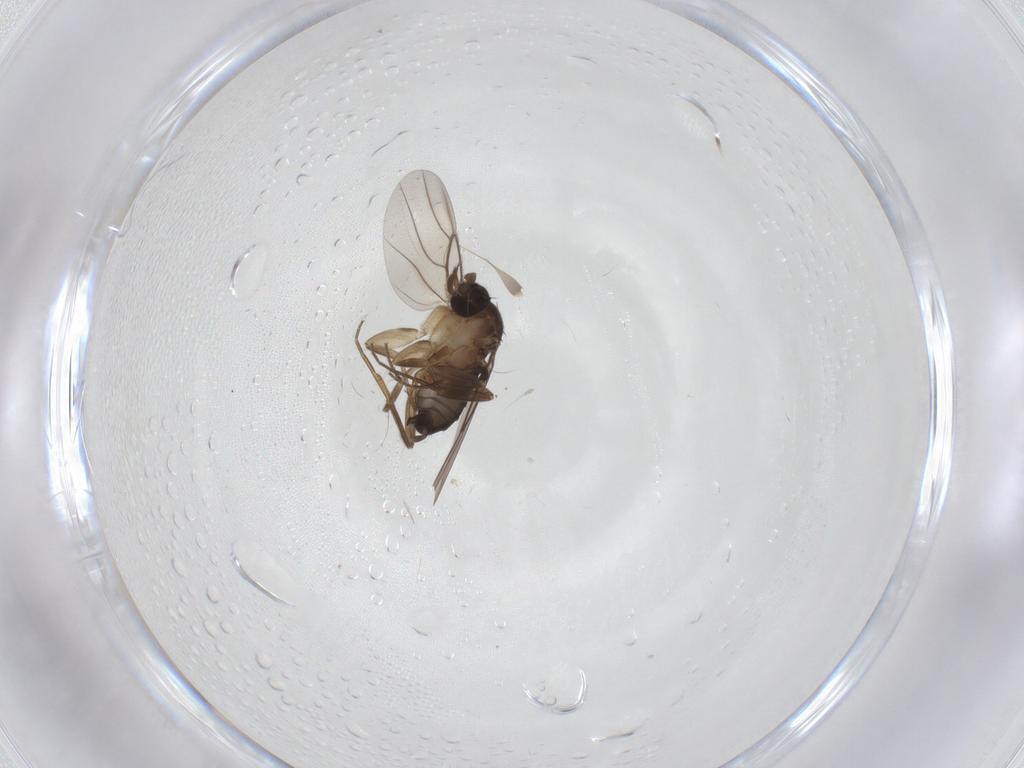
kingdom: Animalia
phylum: Arthropoda
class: Insecta
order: Diptera
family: Phoridae
